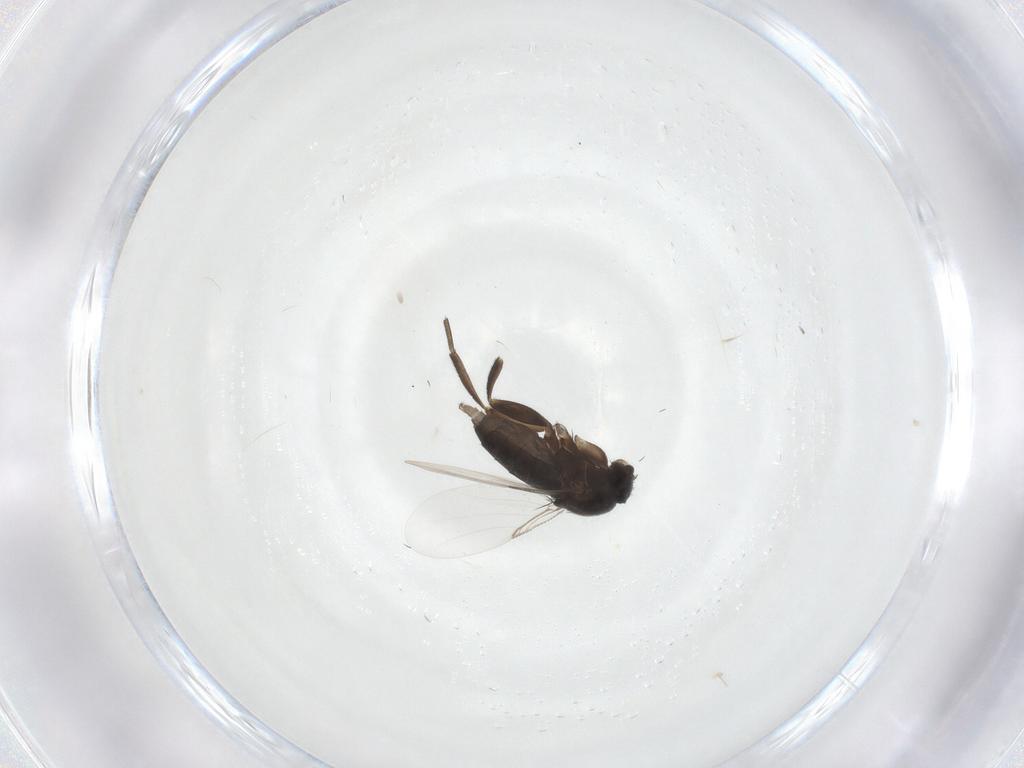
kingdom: Animalia
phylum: Arthropoda
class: Insecta
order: Diptera
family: Phoridae
